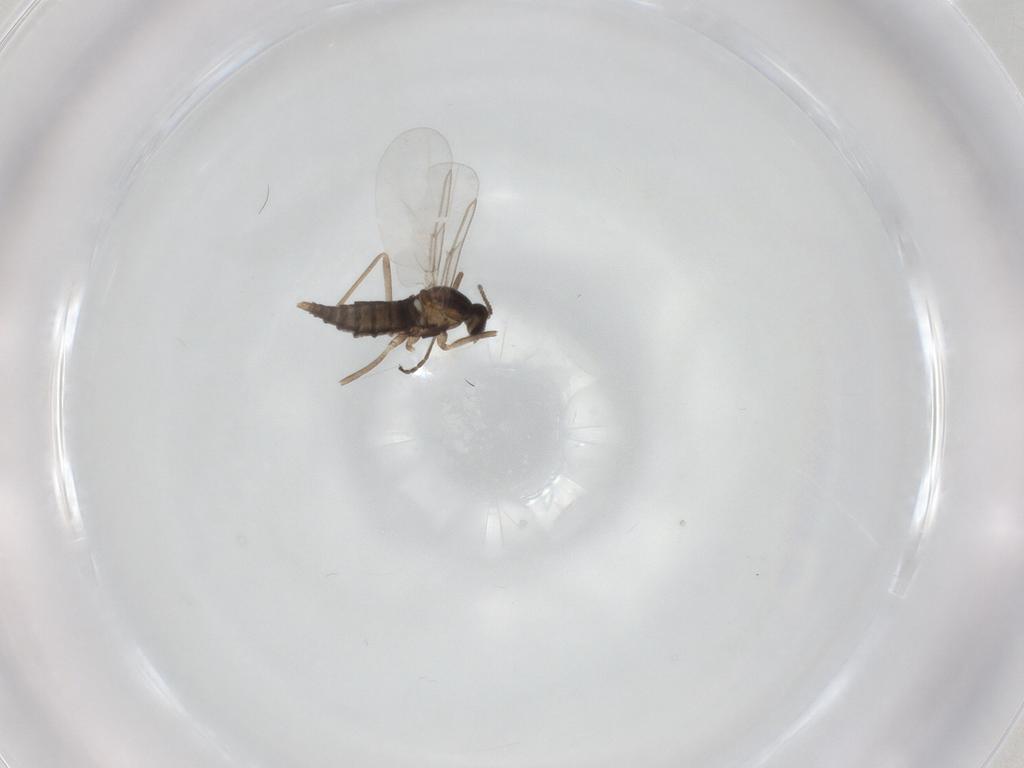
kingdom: Animalia
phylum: Arthropoda
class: Insecta
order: Diptera
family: Cecidomyiidae
